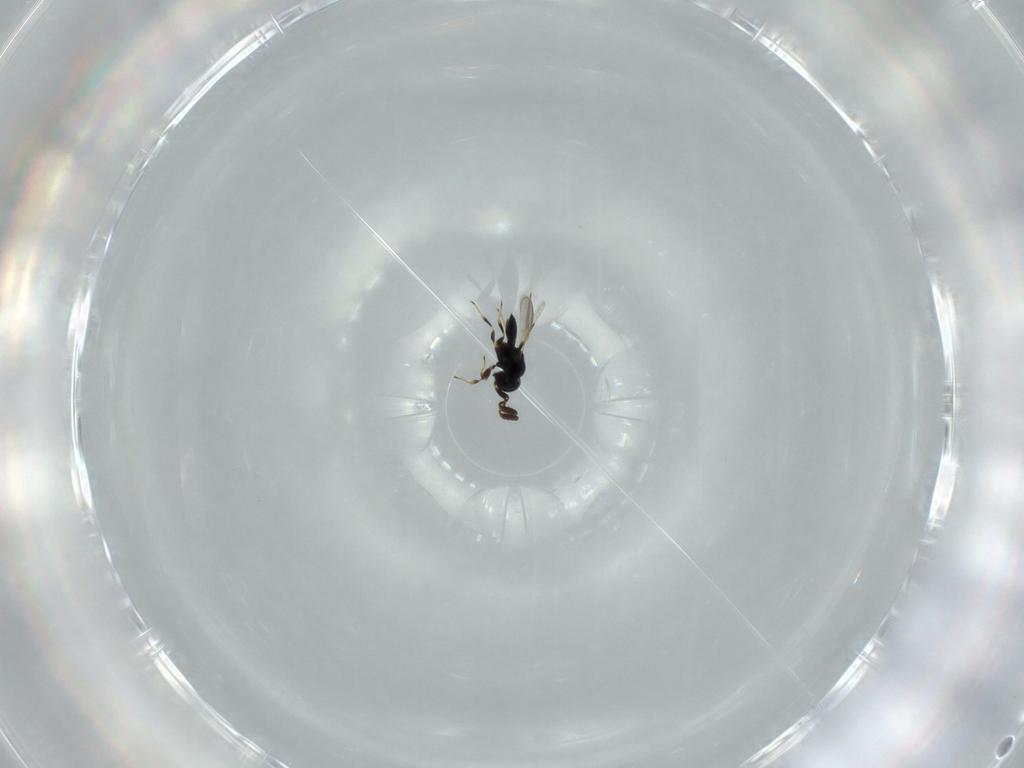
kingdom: Animalia
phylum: Arthropoda
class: Insecta
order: Hymenoptera
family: Scelionidae
